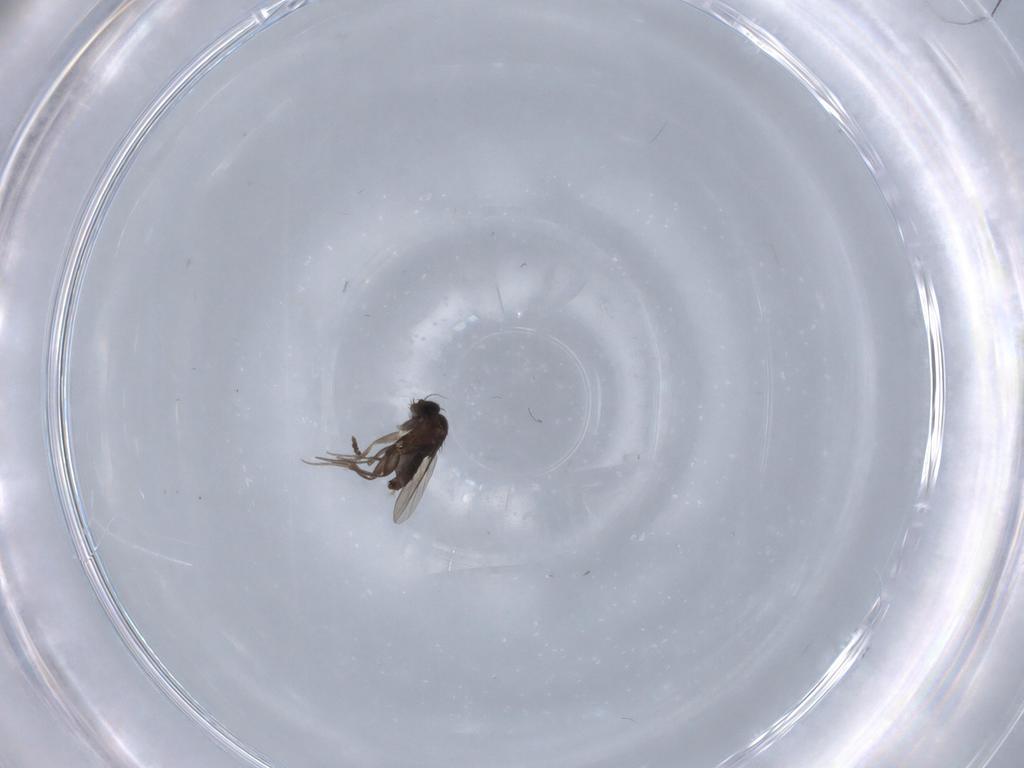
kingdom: Animalia
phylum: Arthropoda
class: Insecta
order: Diptera
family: Phoridae
